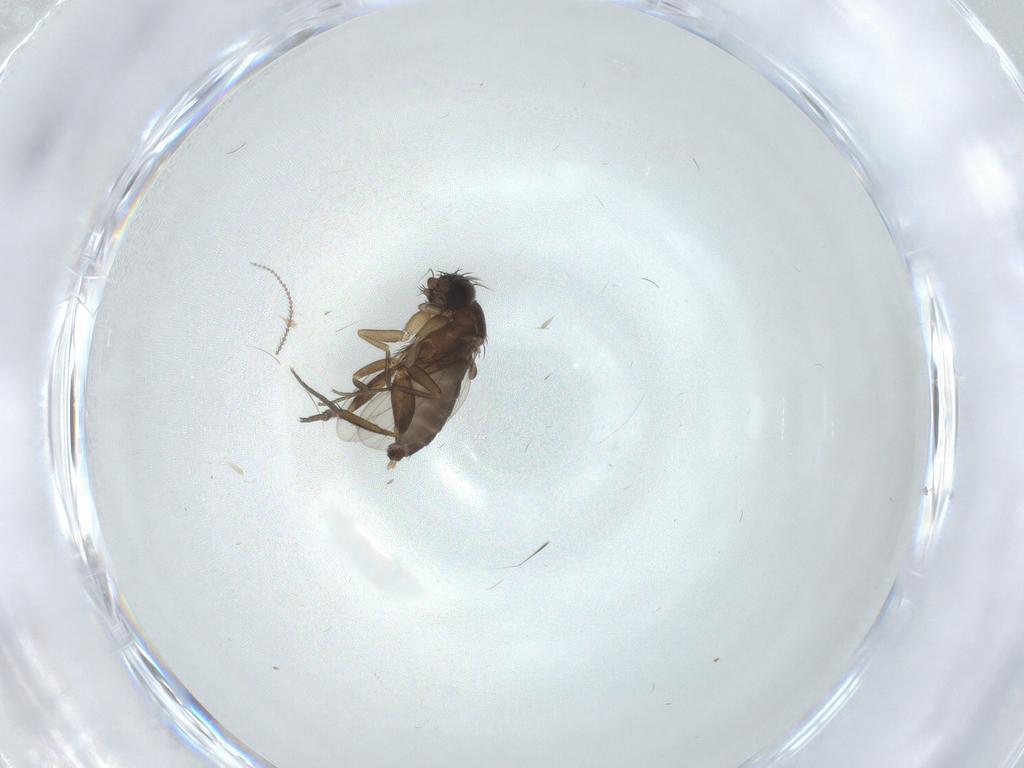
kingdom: Animalia
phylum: Arthropoda
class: Insecta
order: Diptera
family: Phoridae
